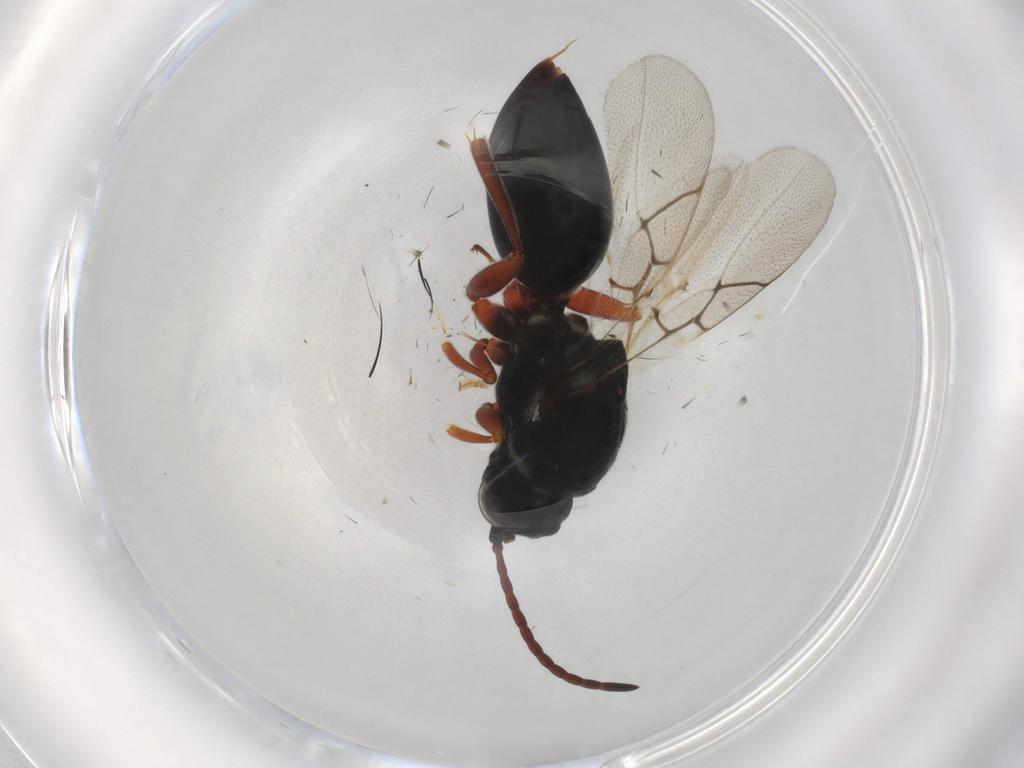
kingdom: Animalia
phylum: Arthropoda
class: Insecta
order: Hymenoptera
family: Figitidae
